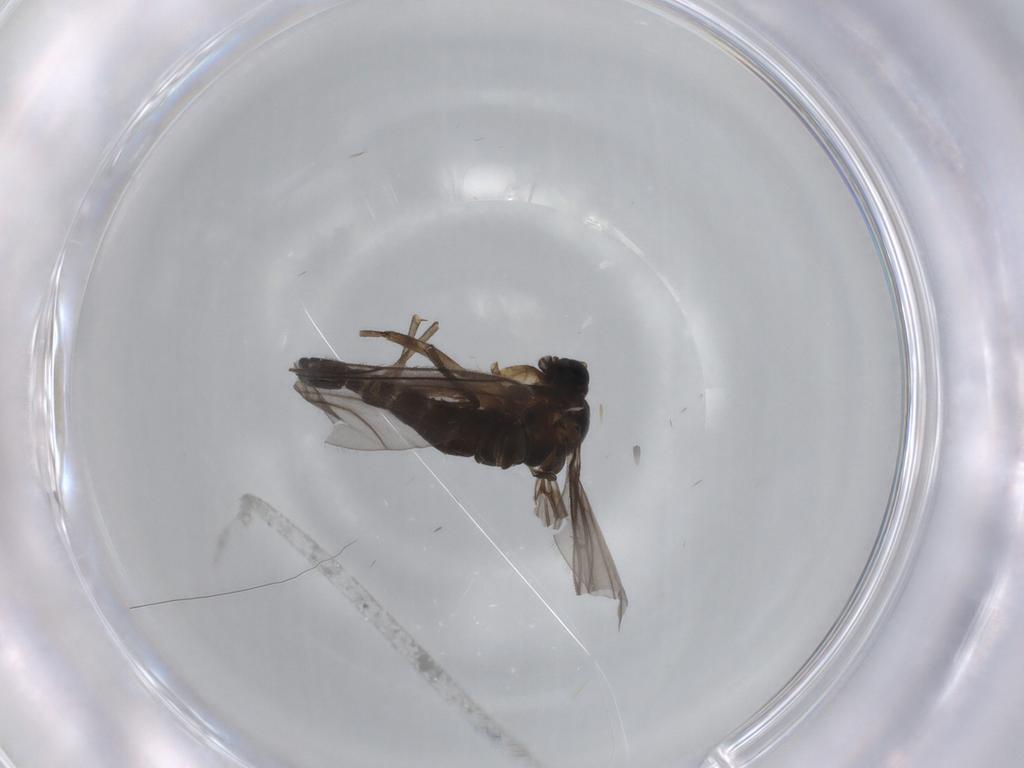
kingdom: Animalia
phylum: Arthropoda
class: Insecta
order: Diptera
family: Sciaridae
